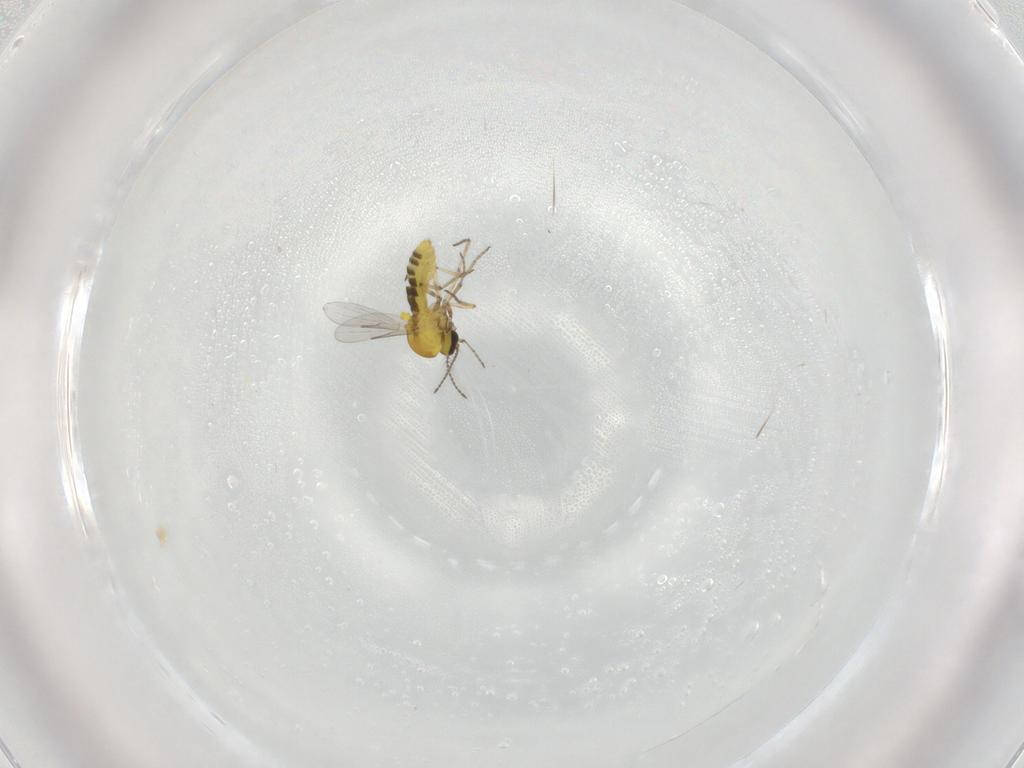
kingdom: Animalia
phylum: Arthropoda
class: Insecta
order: Diptera
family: Ceratopogonidae
